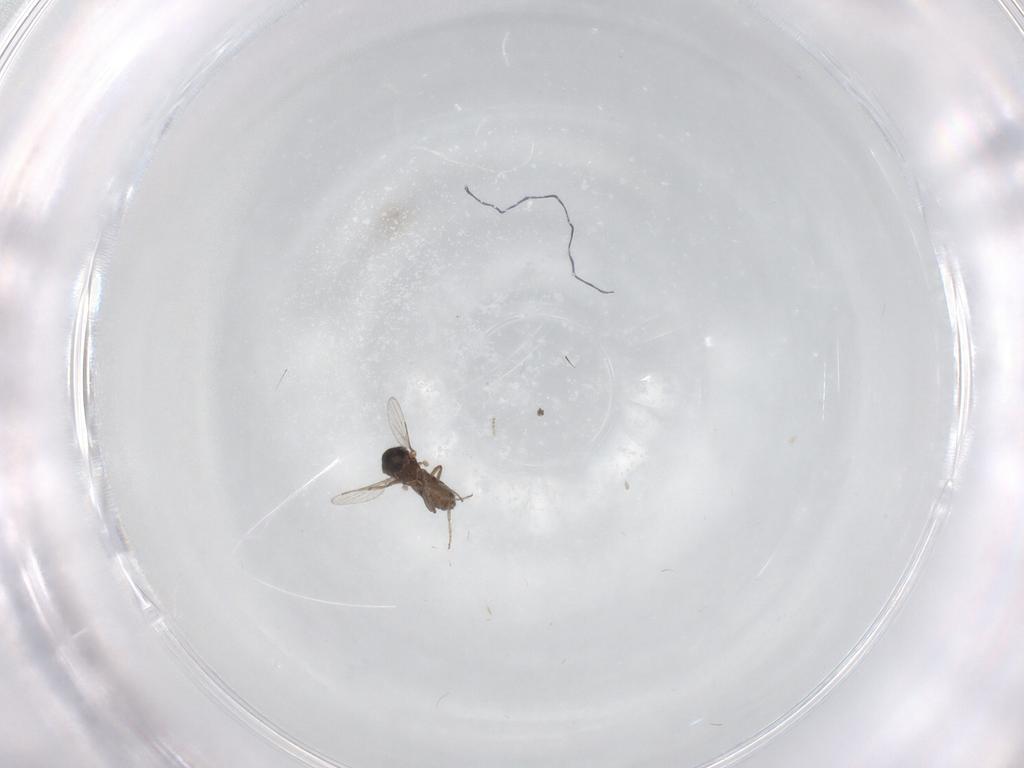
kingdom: Animalia
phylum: Arthropoda
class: Insecta
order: Diptera
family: Ceratopogonidae
